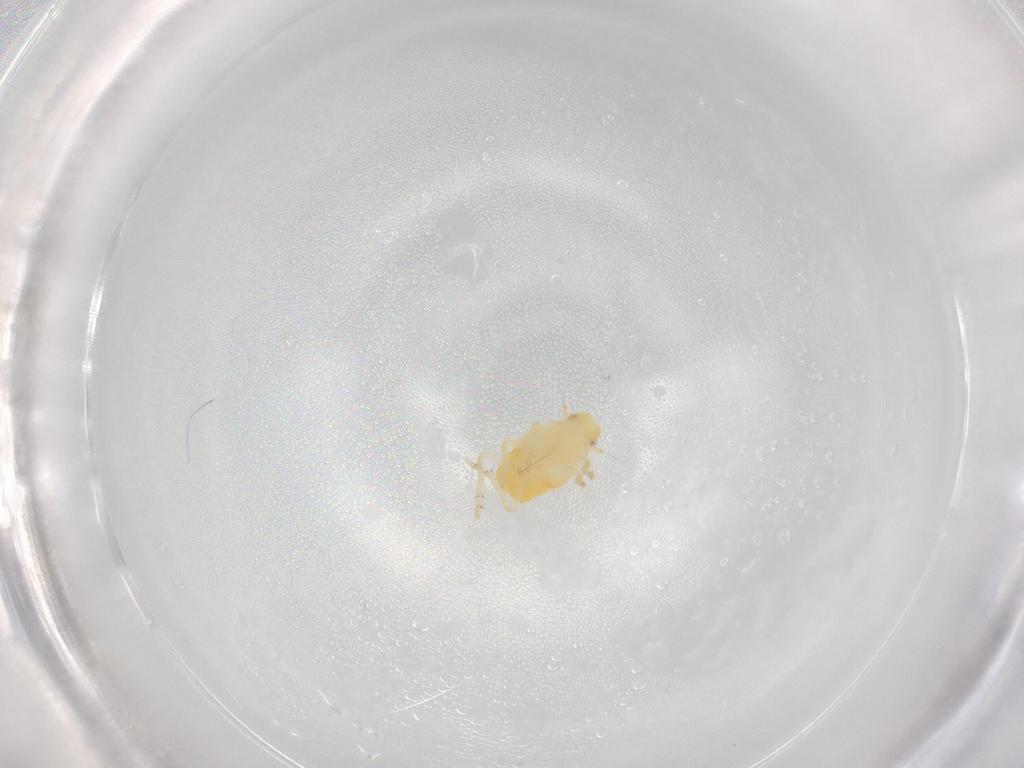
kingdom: Animalia
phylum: Arthropoda
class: Insecta
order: Hemiptera
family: Flatidae
